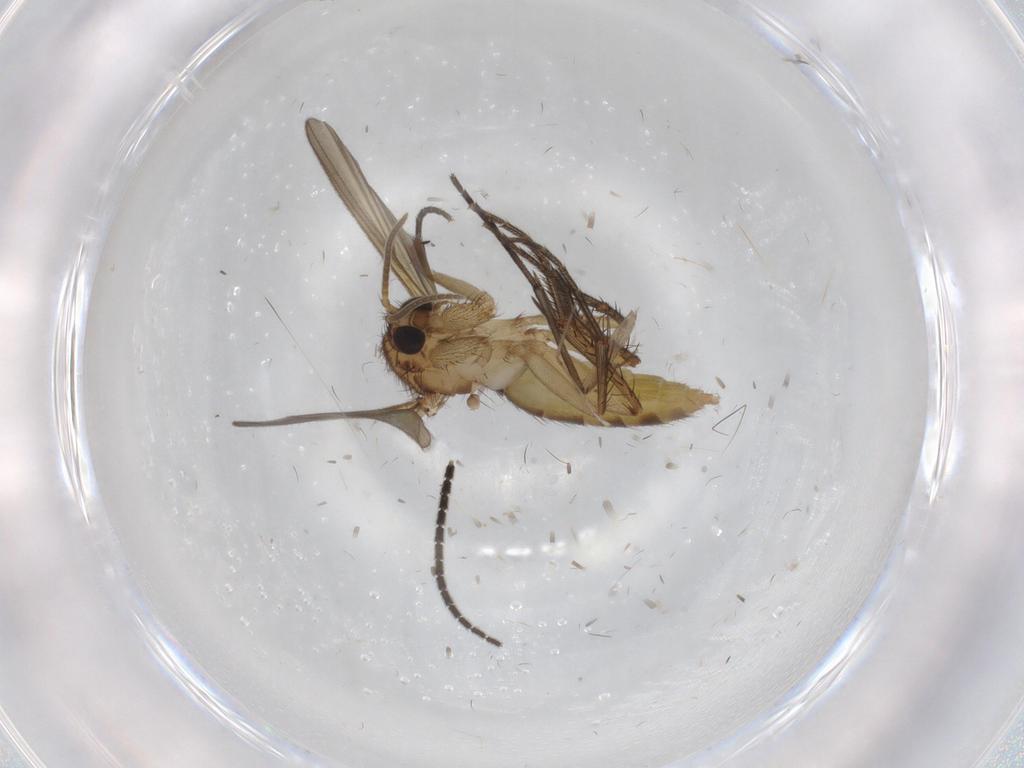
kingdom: Animalia
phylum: Arthropoda
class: Insecta
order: Diptera
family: Mycetophilidae
